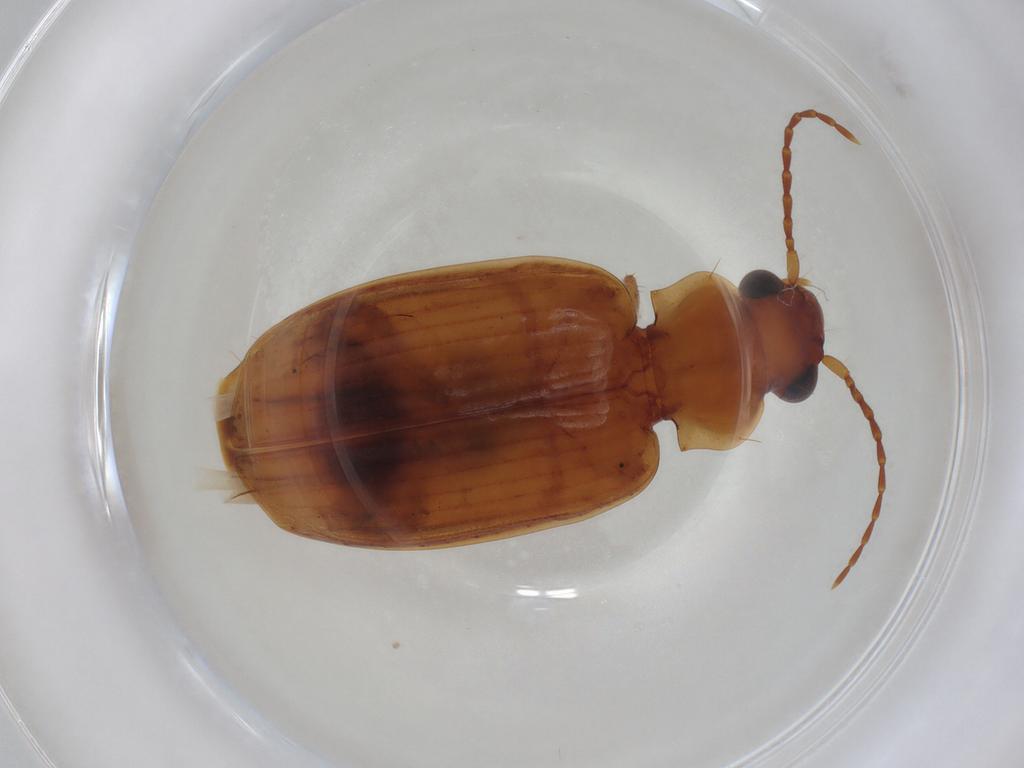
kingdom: Animalia
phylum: Arthropoda
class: Insecta
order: Coleoptera
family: Carabidae
